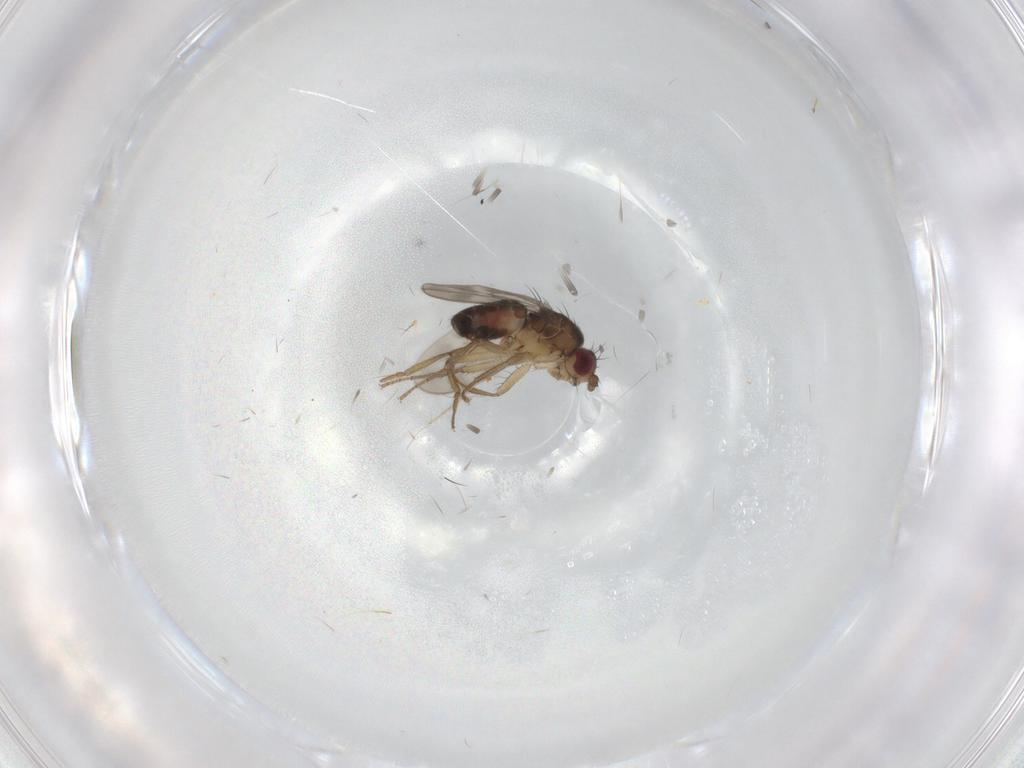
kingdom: Animalia
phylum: Arthropoda
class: Insecta
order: Diptera
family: Sphaeroceridae
